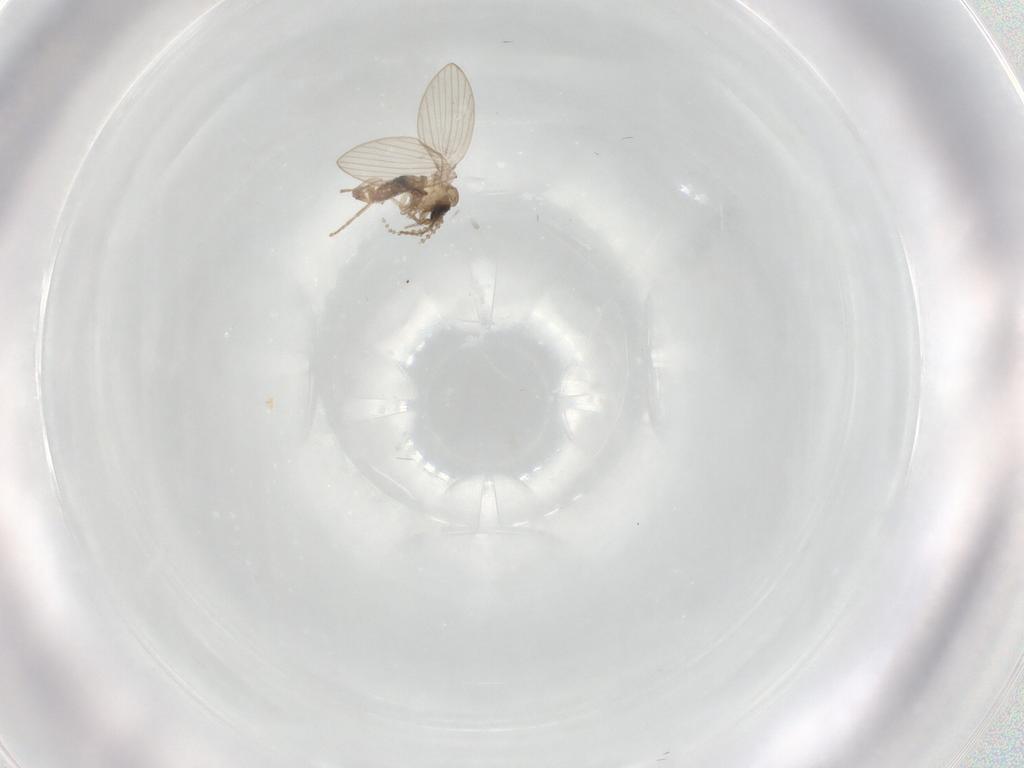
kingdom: Animalia
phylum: Arthropoda
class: Insecta
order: Diptera
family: Psychodidae
